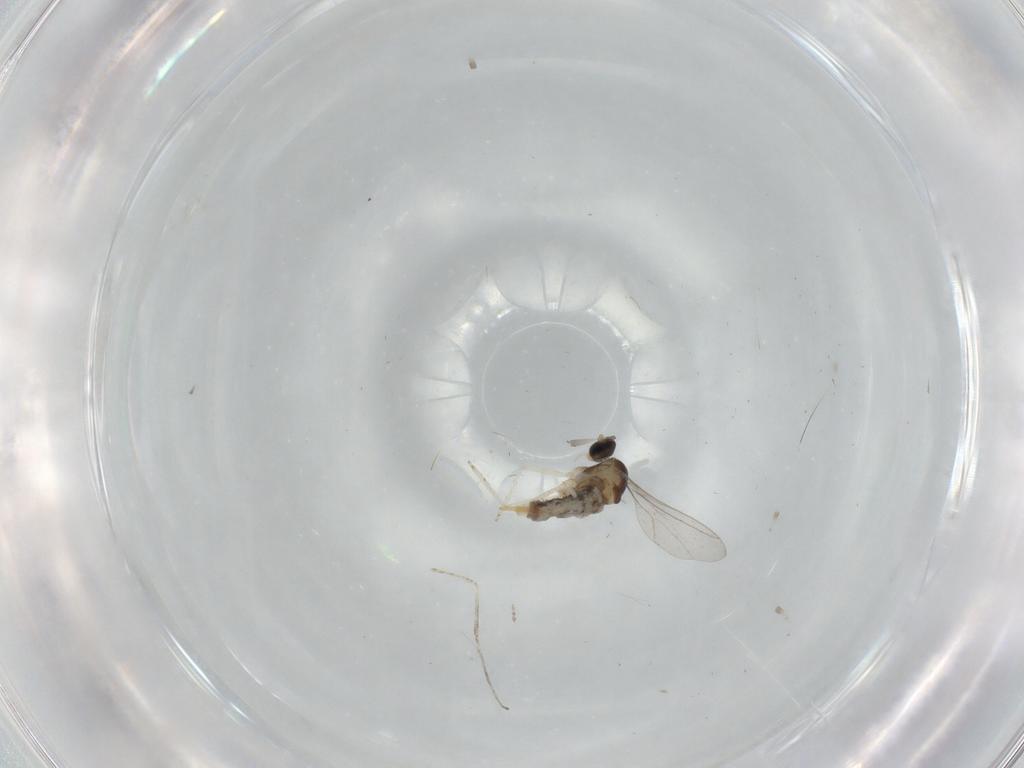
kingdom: Animalia
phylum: Arthropoda
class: Insecta
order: Diptera
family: Cecidomyiidae
